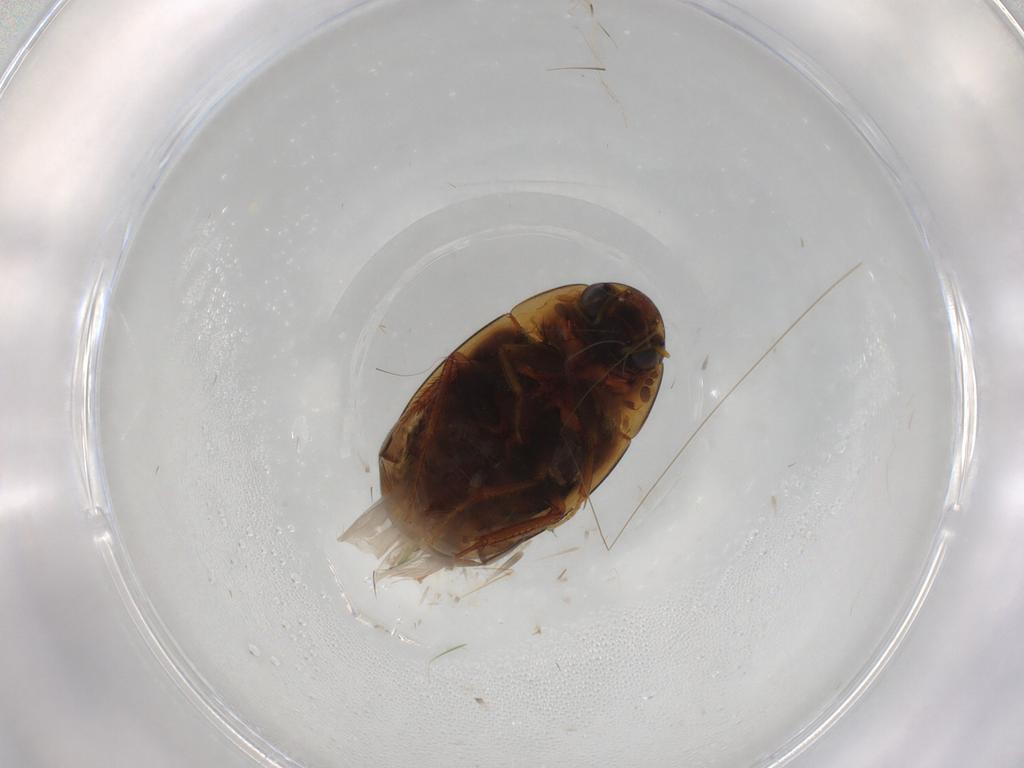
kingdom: Animalia
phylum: Arthropoda
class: Insecta
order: Coleoptera
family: Hydrophilidae
